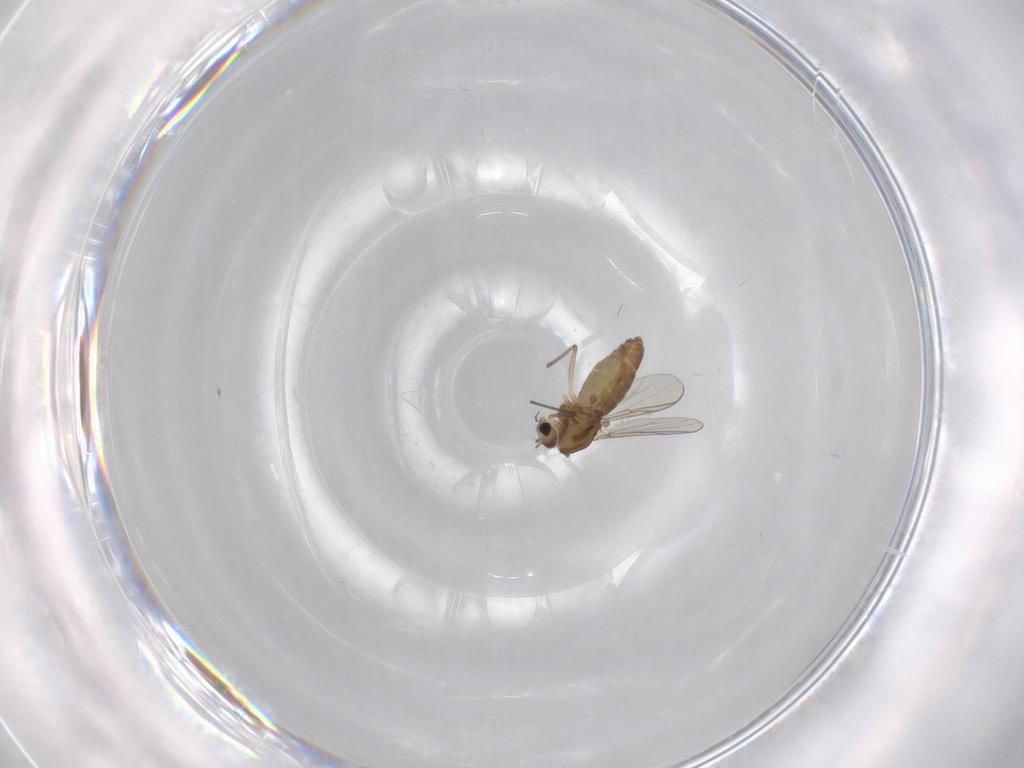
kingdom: Animalia
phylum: Arthropoda
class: Insecta
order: Diptera
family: Chironomidae
